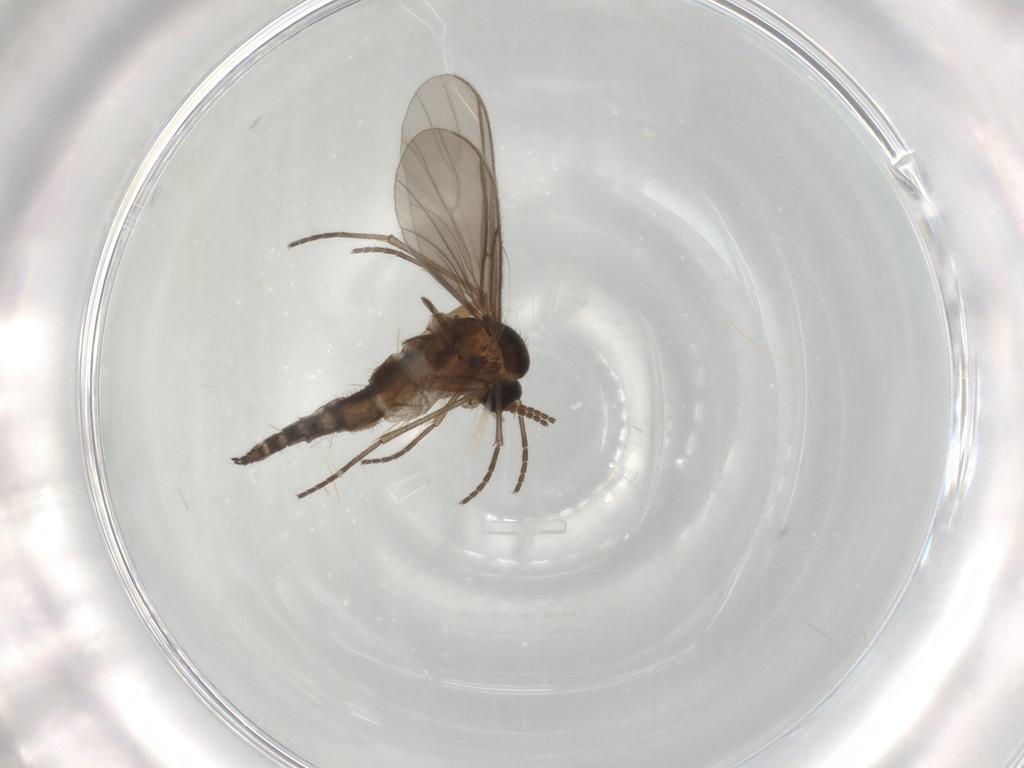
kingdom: Animalia
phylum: Arthropoda
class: Insecta
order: Diptera
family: Sciaridae
